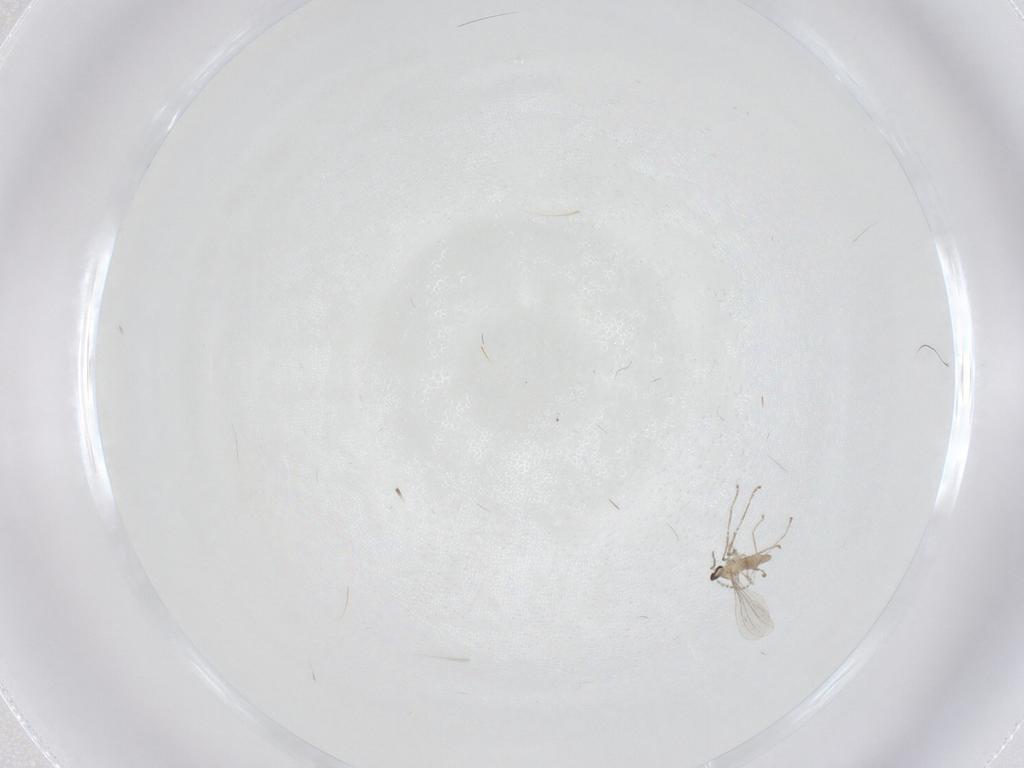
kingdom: Animalia
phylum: Arthropoda
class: Insecta
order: Diptera
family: Cecidomyiidae
